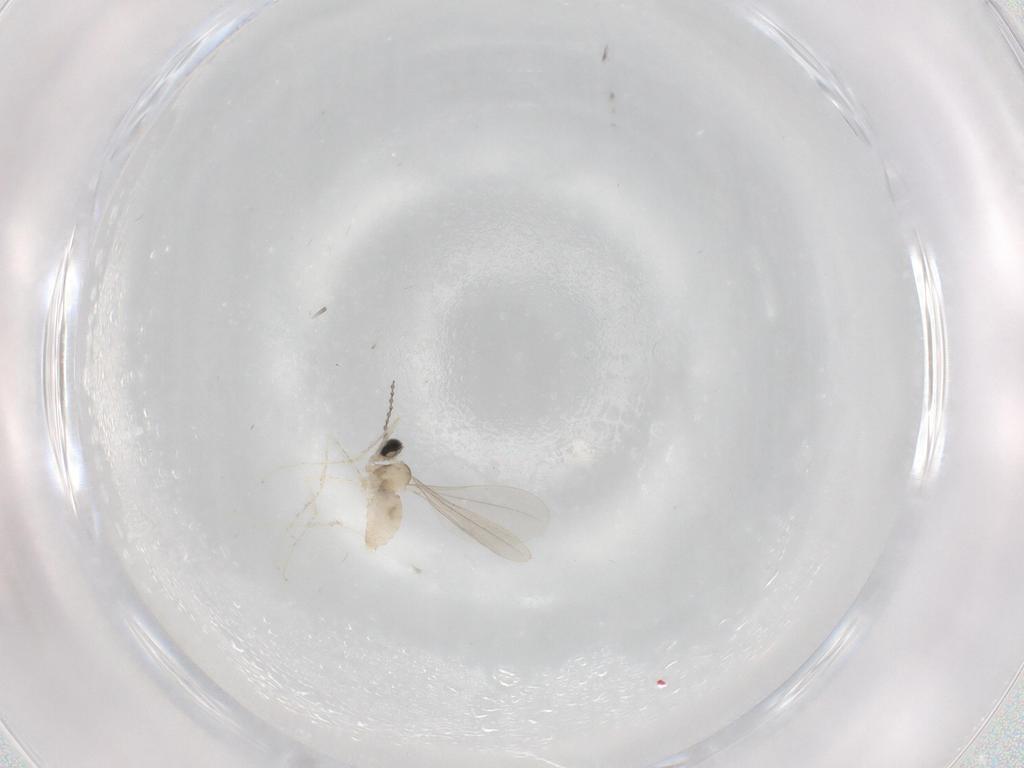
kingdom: Animalia
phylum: Arthropoda
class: Insecta
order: Diptera
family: Cecidomyiidae
